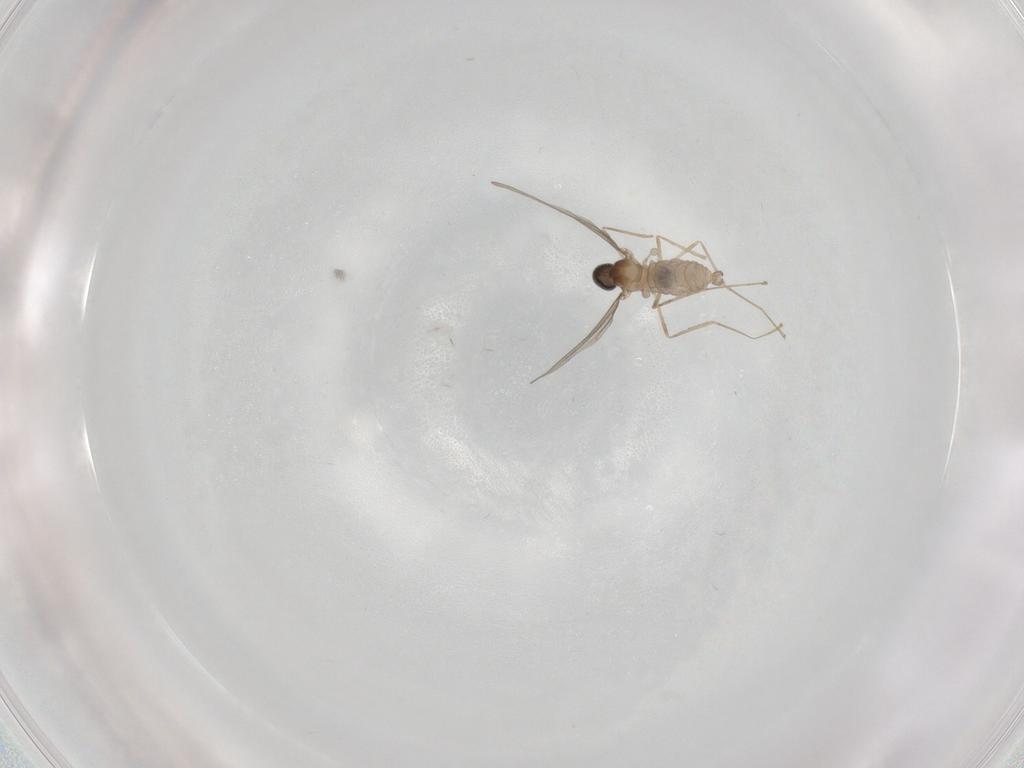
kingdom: Animalia
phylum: Arthropoda
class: Insecta
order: Diptera
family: Cecidomyiidae
